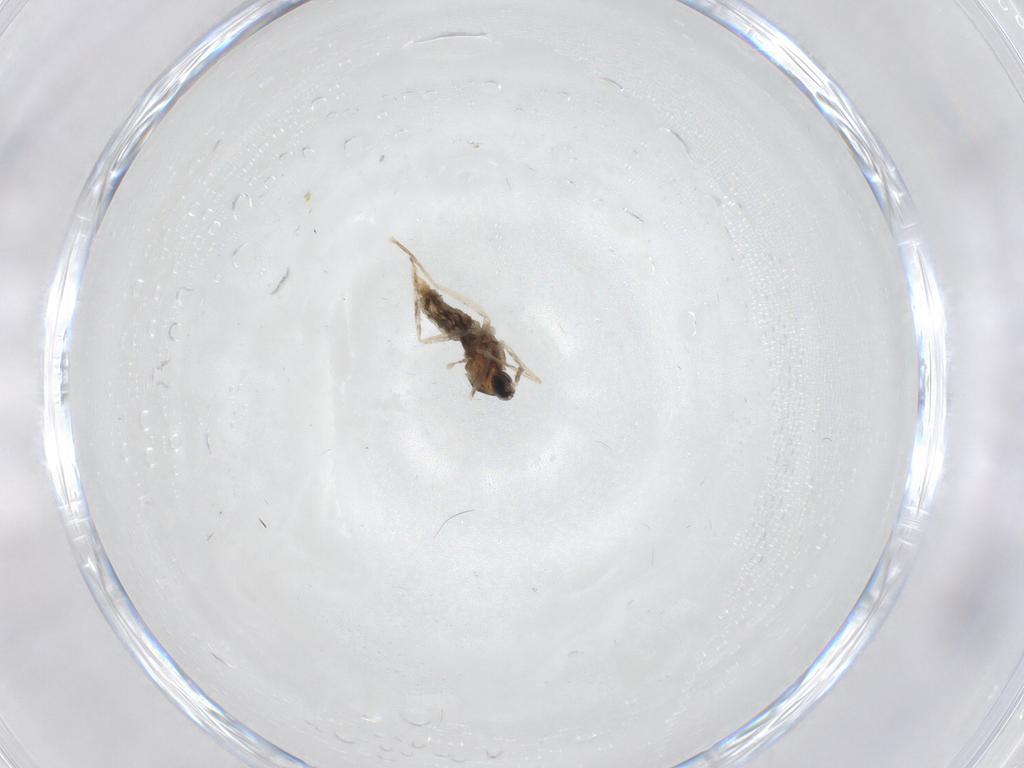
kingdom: Animalia
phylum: Arthropoda
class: Insecta
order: Diptera
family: Cecidomyiidae
